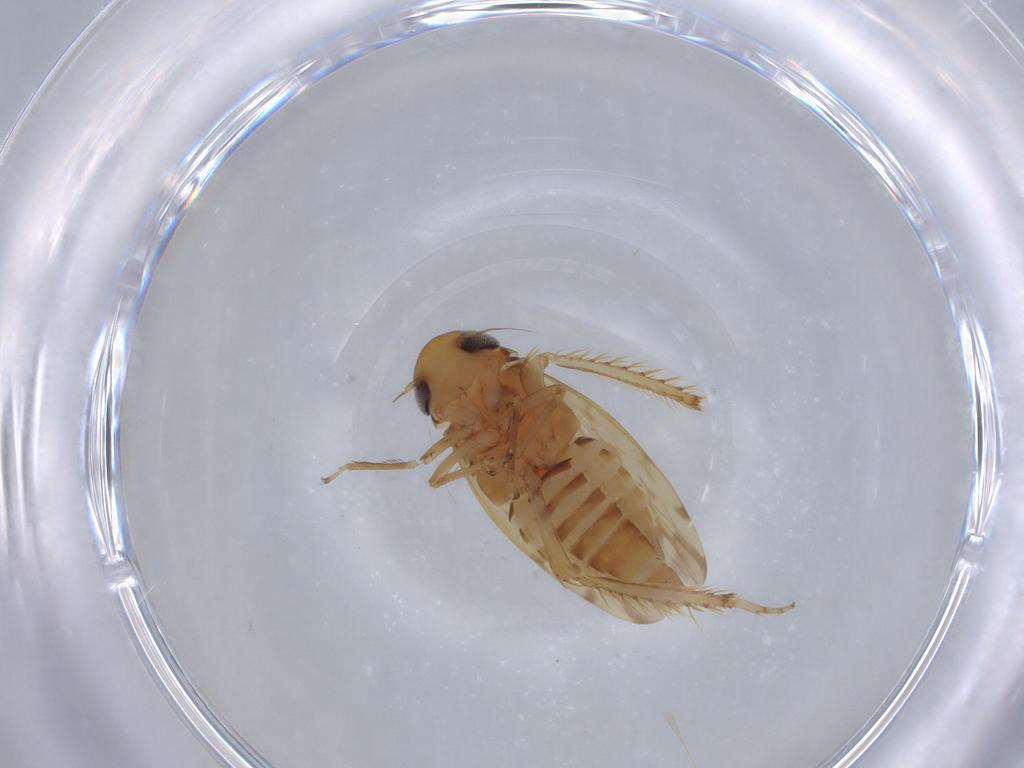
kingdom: Animalia
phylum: Arthropoda
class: Insecta
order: Hemiptera
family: Cicadellidae
